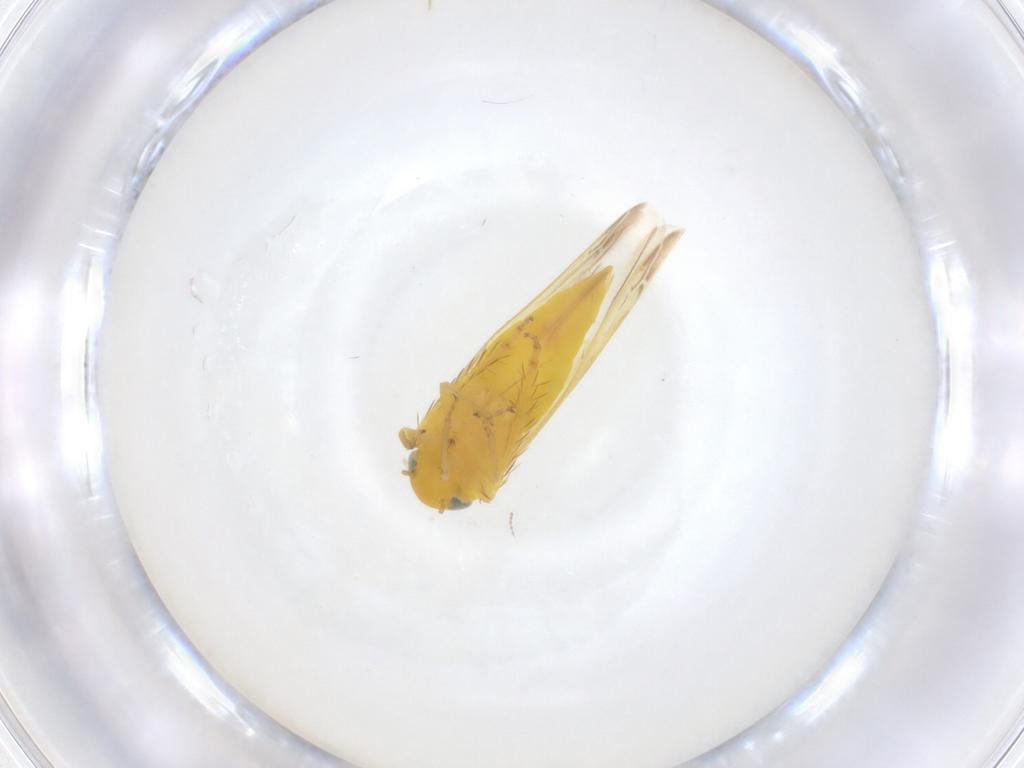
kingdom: Animalia
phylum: Arthropoda
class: Insecta
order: Hemiptera
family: Cicadellidae
